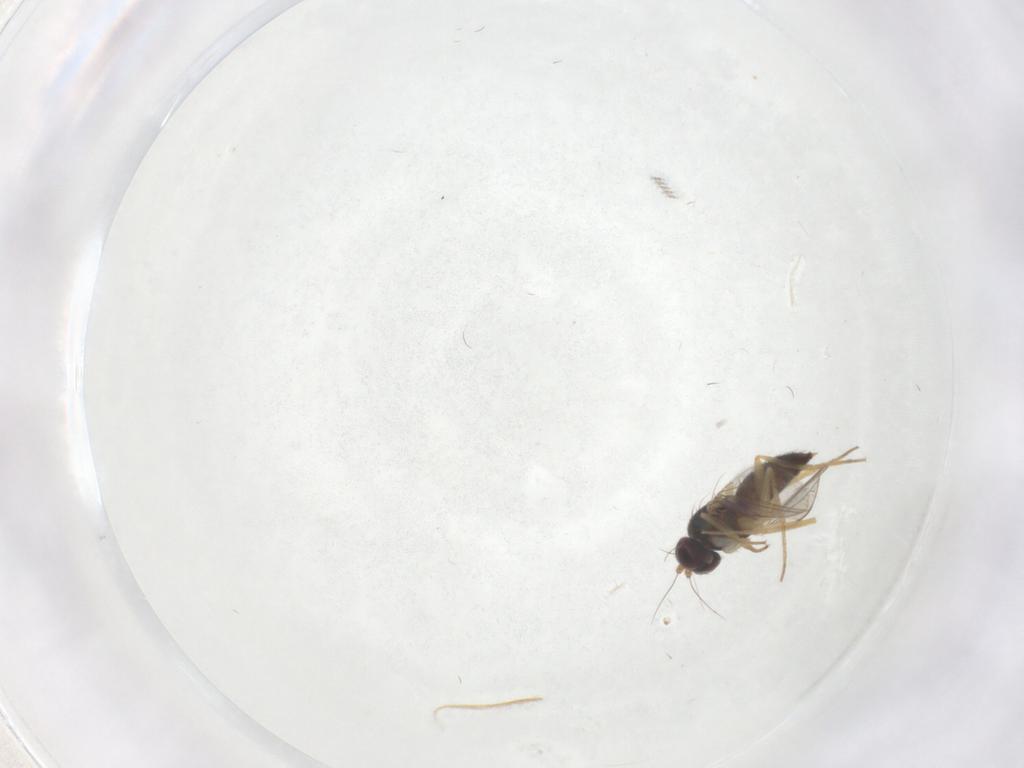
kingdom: Animalia
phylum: Arthropoda
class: Insecta
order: Diptera
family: Dolichopodidae
